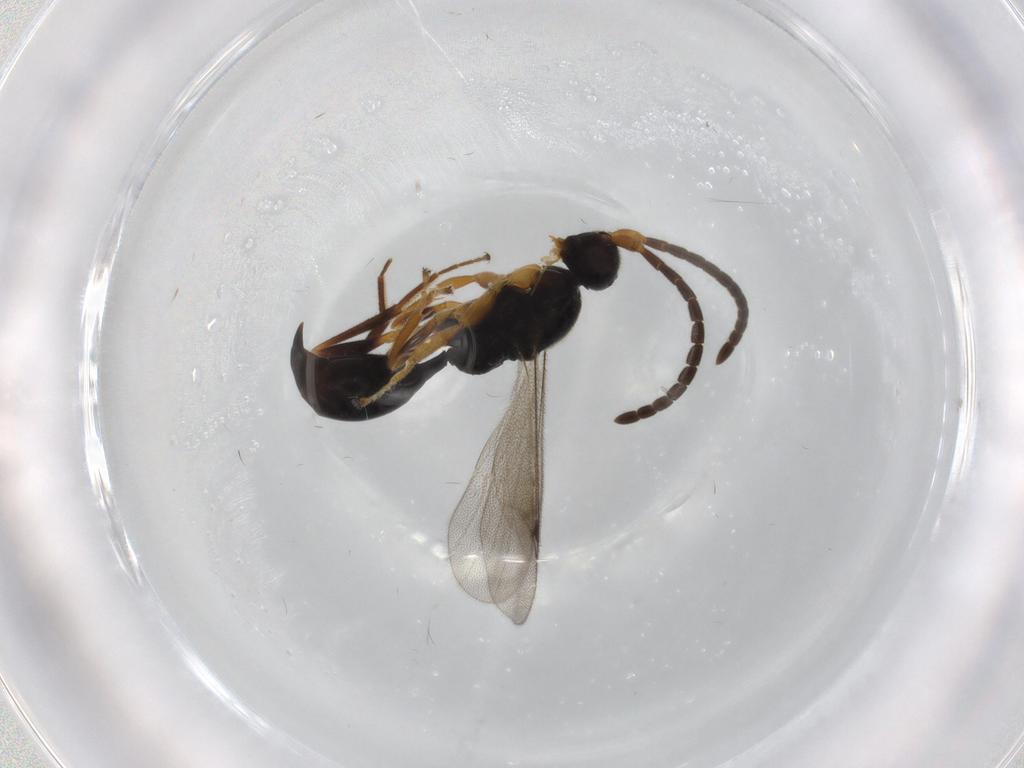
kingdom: Animalia
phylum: Arthropoda
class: Insecta
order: Hymenoptera
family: Proctotrupidae
